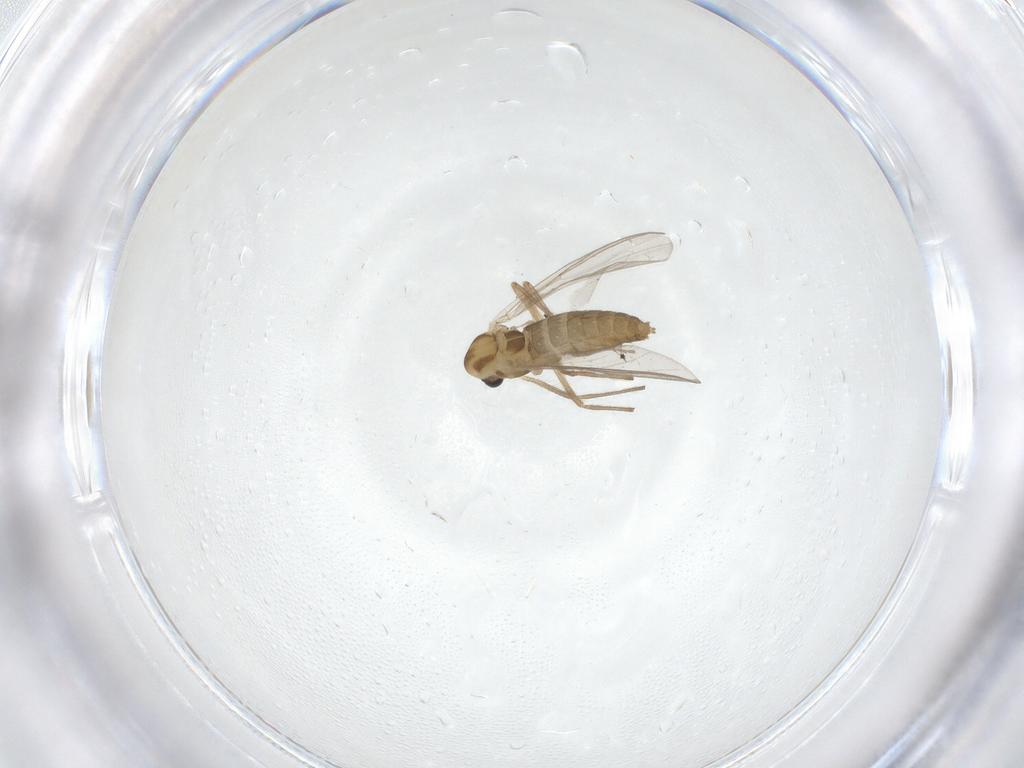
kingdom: Animalia
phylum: Arthropoda
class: Insecta
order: Diptera
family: Chironomidae
